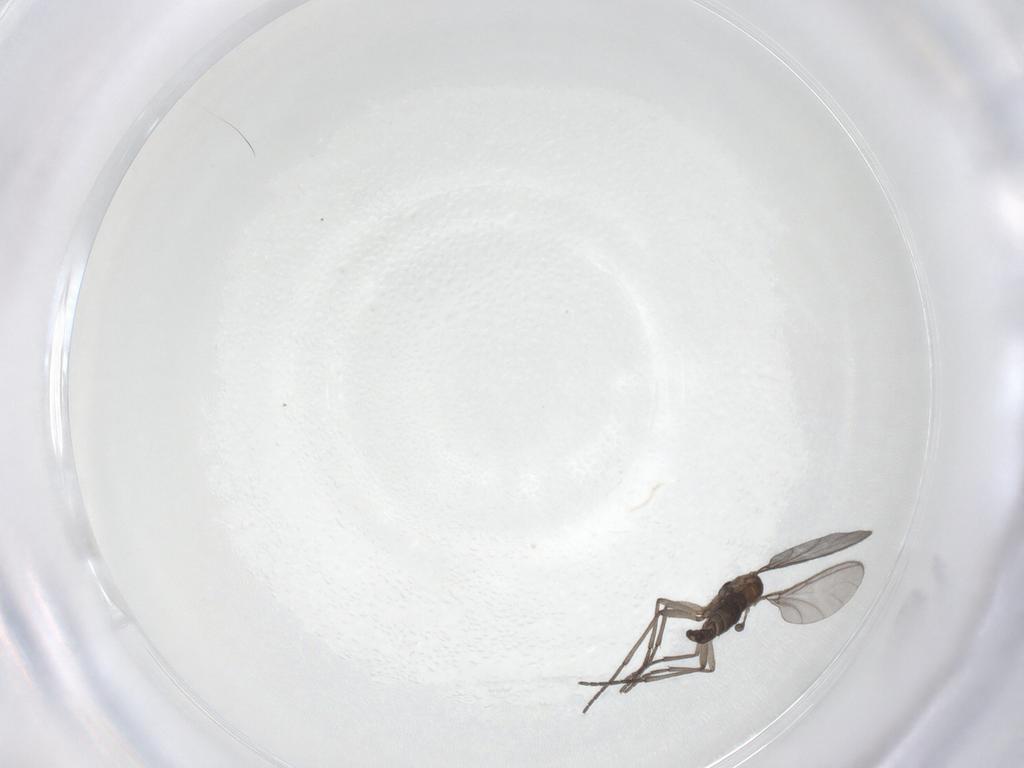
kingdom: Animalia
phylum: Arthropoda
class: Insecta
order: Diptera
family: Sciaridae
